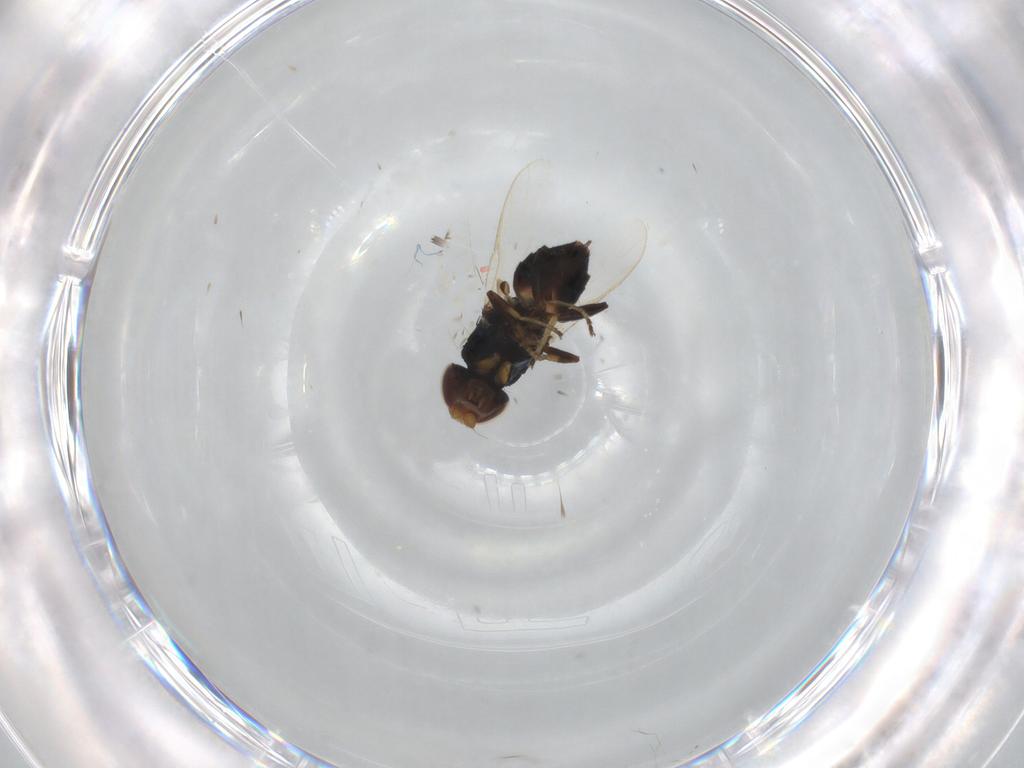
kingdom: Animalia
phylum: Arthropoda
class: Insecta
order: Diptera
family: Chloropidae
